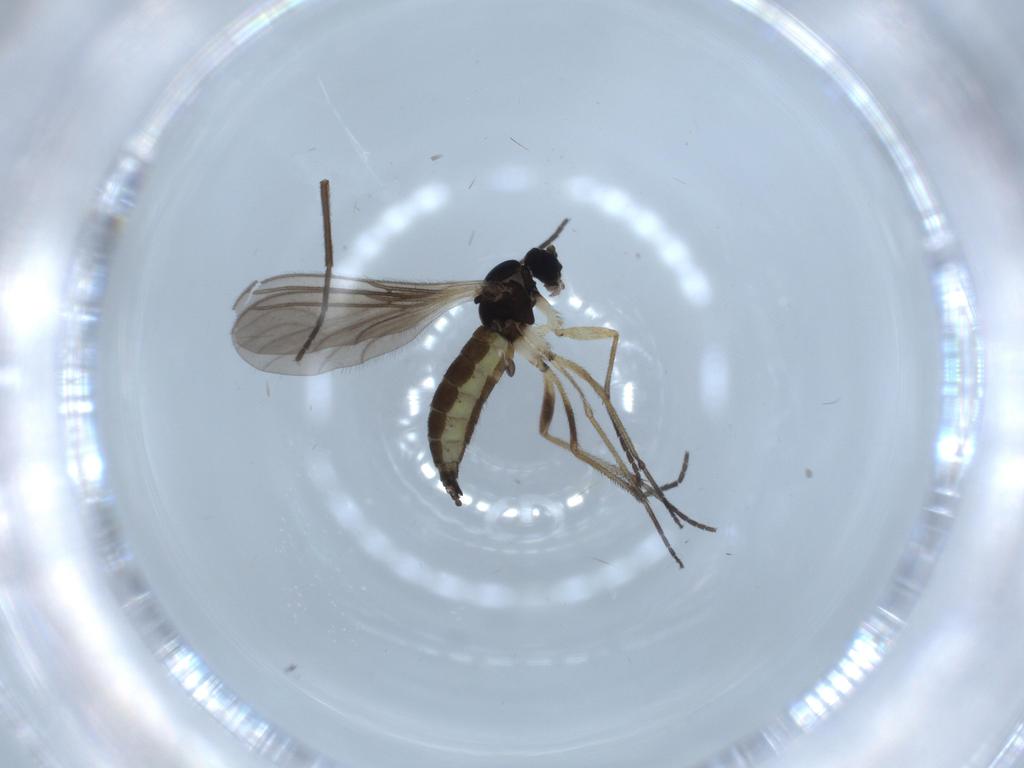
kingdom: Animalia
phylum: Arthropoda
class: Insecta
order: Diptera
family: Sciaridae
